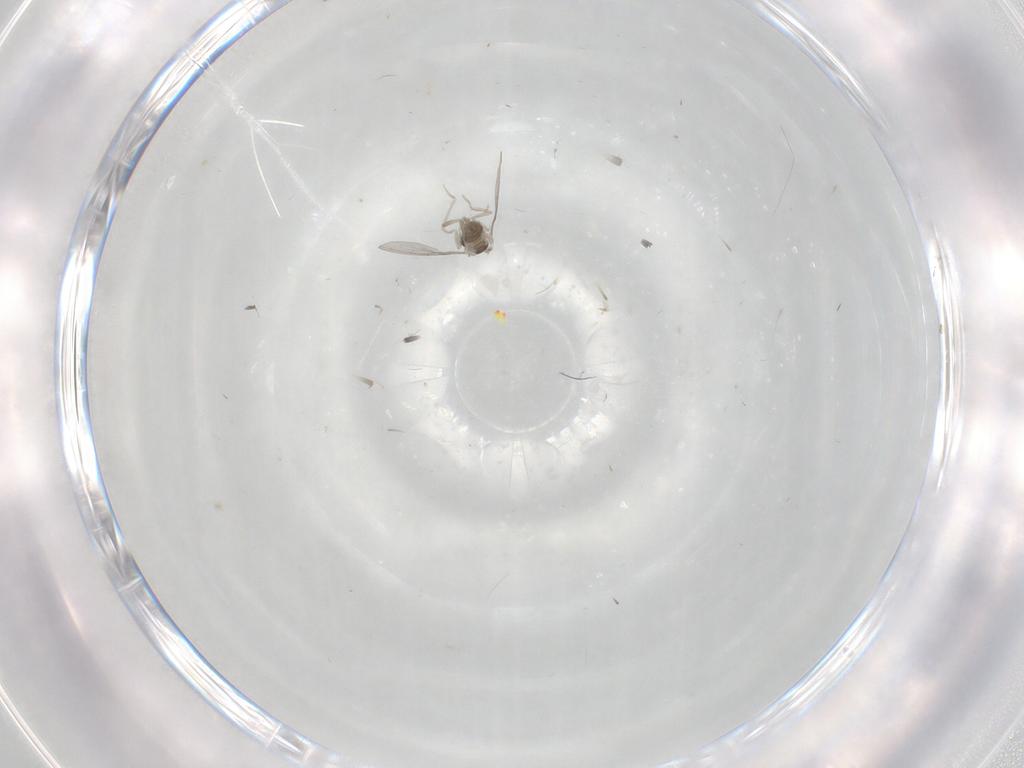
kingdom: Animalia
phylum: Arthropoda
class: Insecta
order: Diptera
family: Cecidomyiidae
